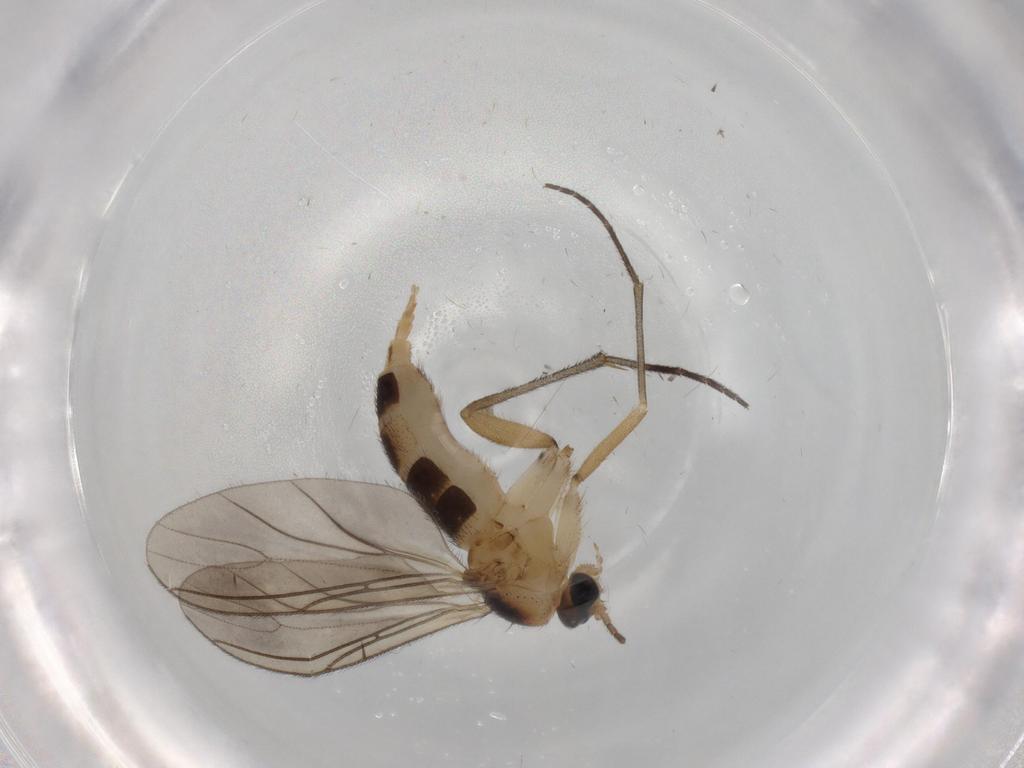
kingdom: Animalia
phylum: Arthropoda
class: Insecta
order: Diptera
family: Sciaridae
